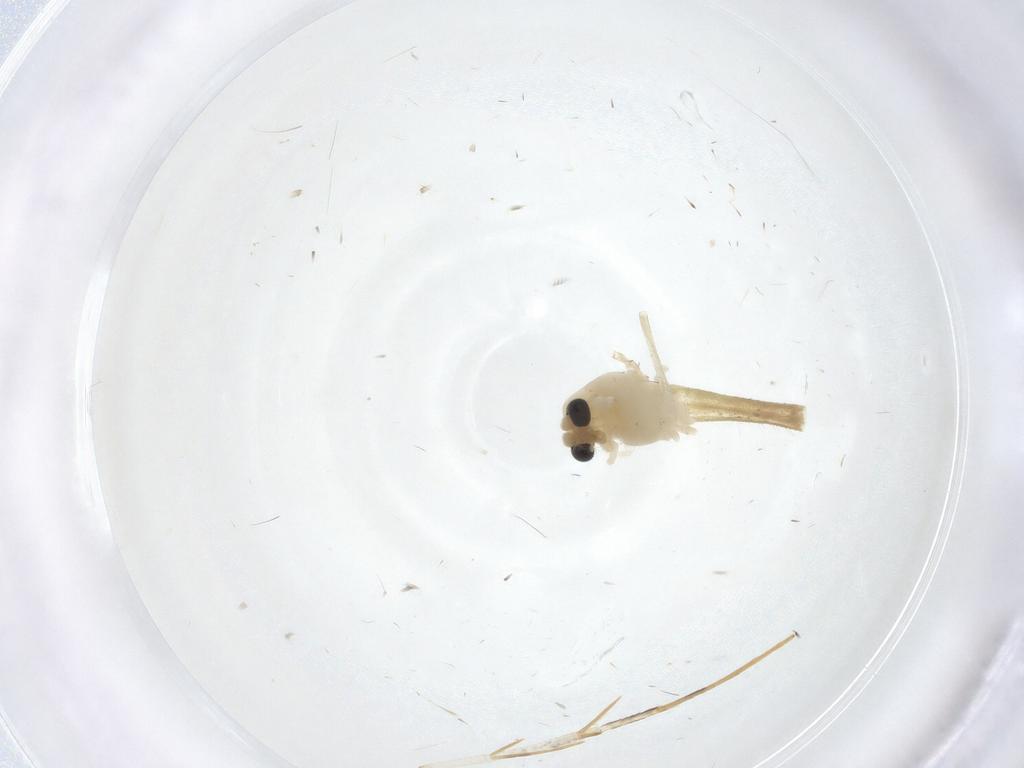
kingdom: Animalia
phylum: Arthropoda
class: Insecta
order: Diptera
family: Chironomidae
